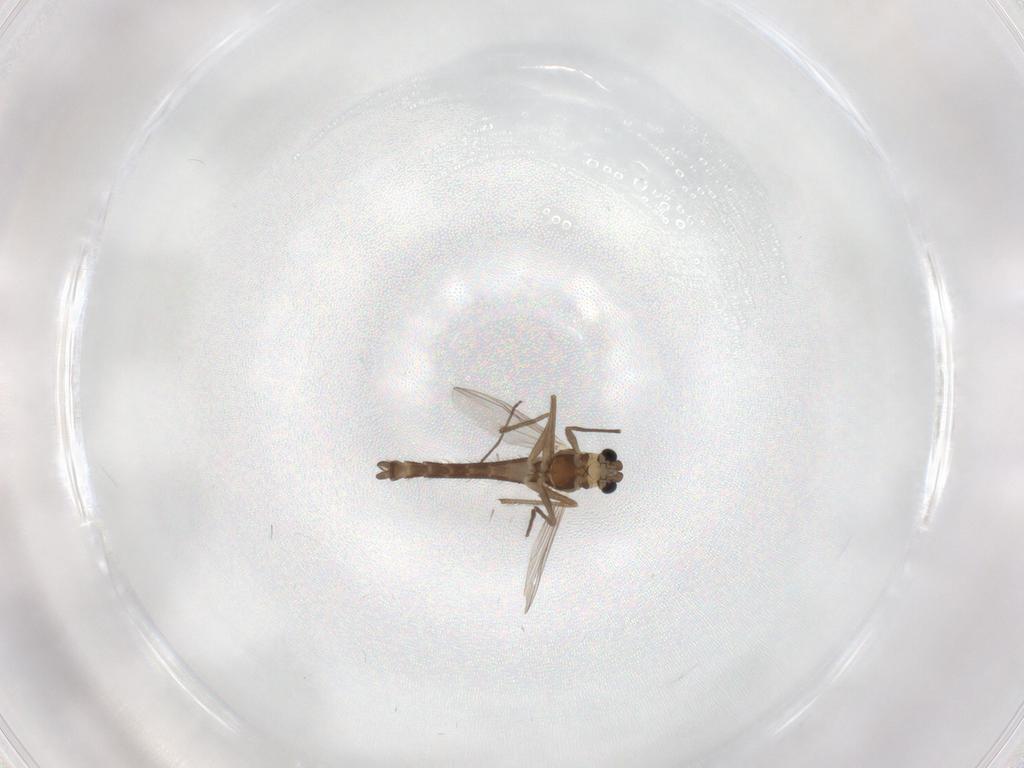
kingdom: Animalia
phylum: Arthropoda
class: Insecta
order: Diptera
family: Chironomidae
